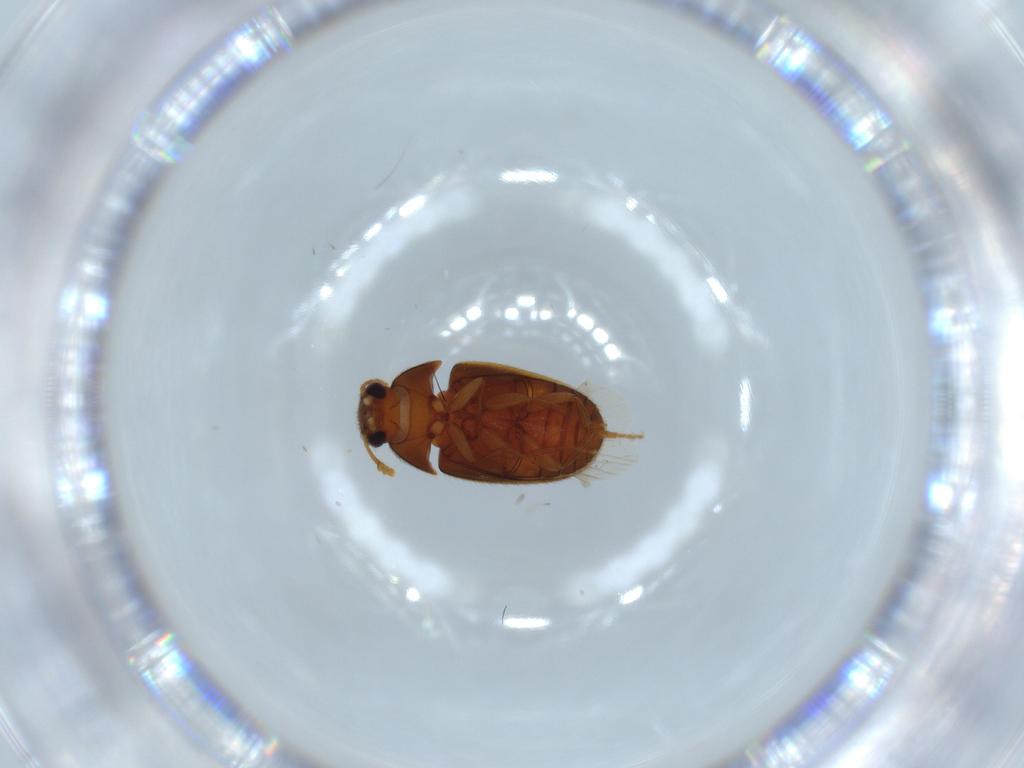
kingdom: Animalia
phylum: Arthropoda
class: Insecta
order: Coleoptera
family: Mycetophagidae
